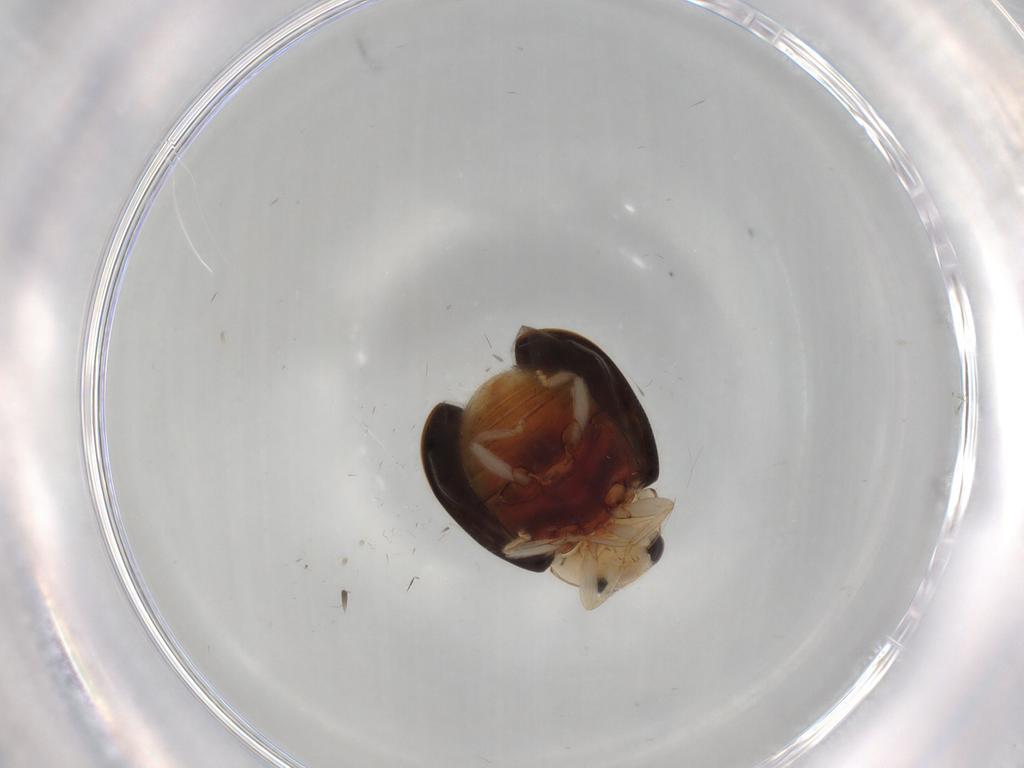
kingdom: Animalia
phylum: Arthropoda
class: Insecta
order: Coleoptera
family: Coccinellidae
